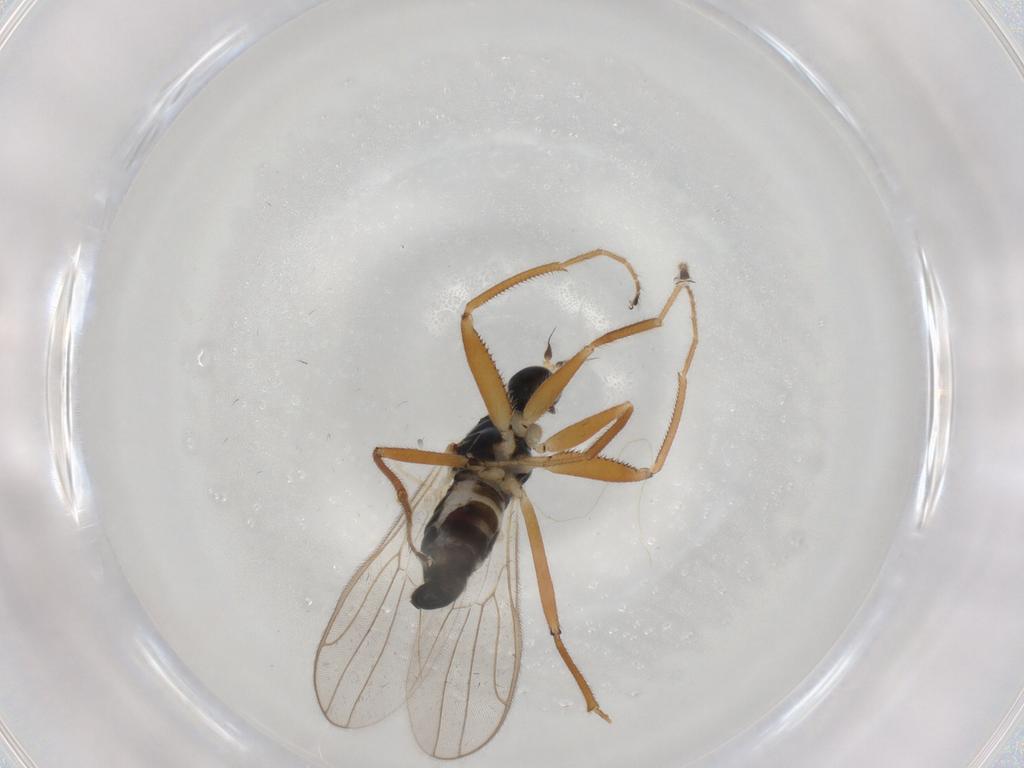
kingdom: Animalia
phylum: Arthropoda
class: Insecta
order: Diptera
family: Hybotidae
